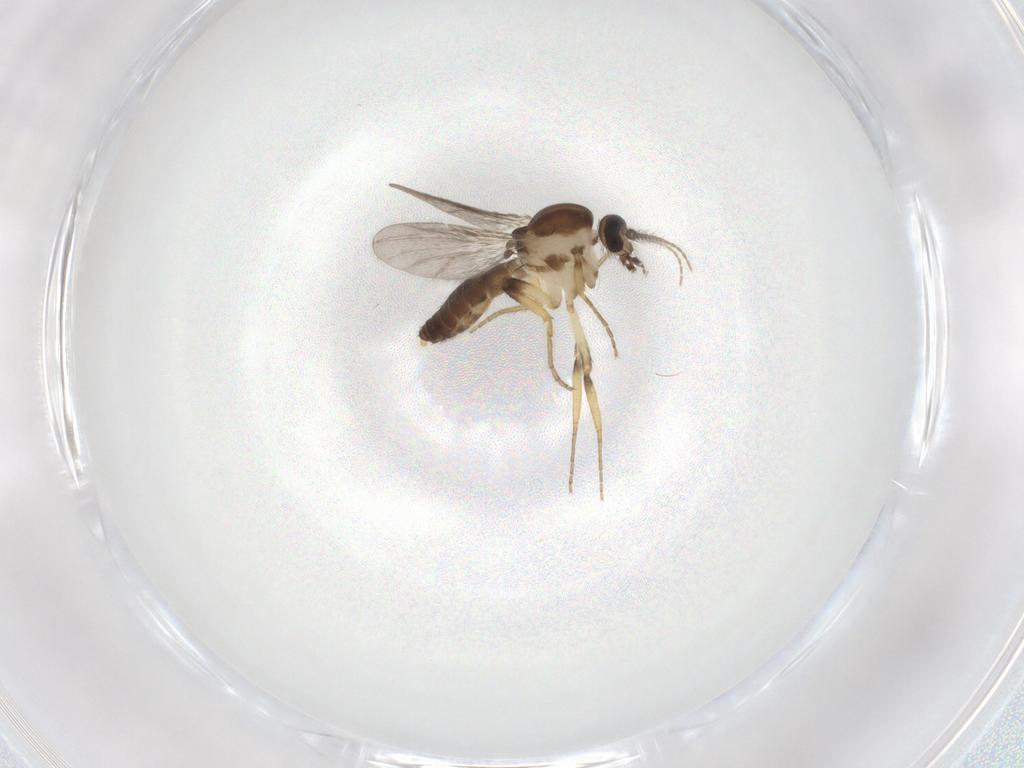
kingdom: Animalia
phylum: Arthropoda
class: Insecta
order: Diptera
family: Ceratopogonidae
